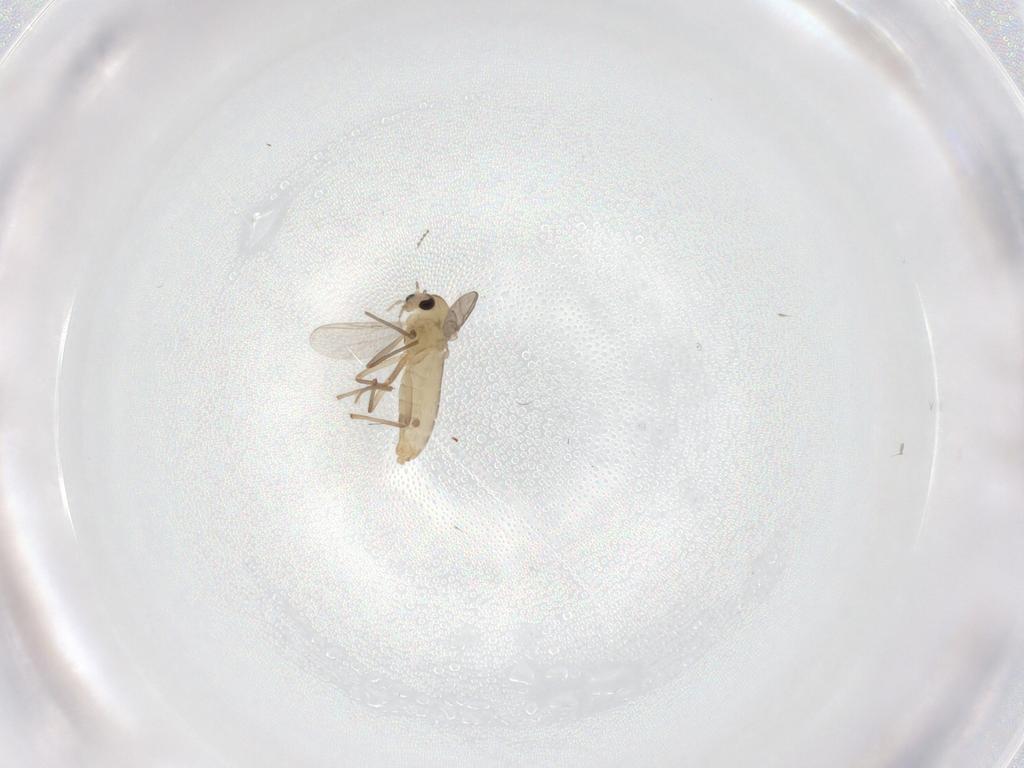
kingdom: Animalia
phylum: Arthropoda
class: Insecta
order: Diptera
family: Chironomidae
